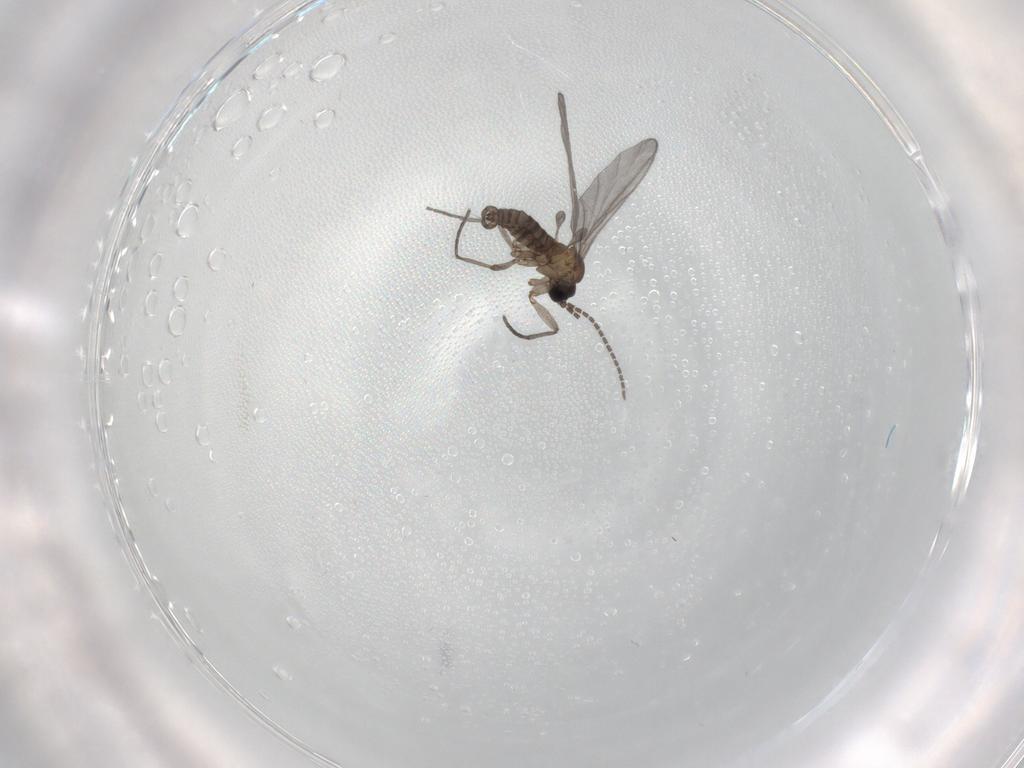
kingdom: Animalia
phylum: Arthropoda
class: Insecta
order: Diptera
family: Sciaridae
